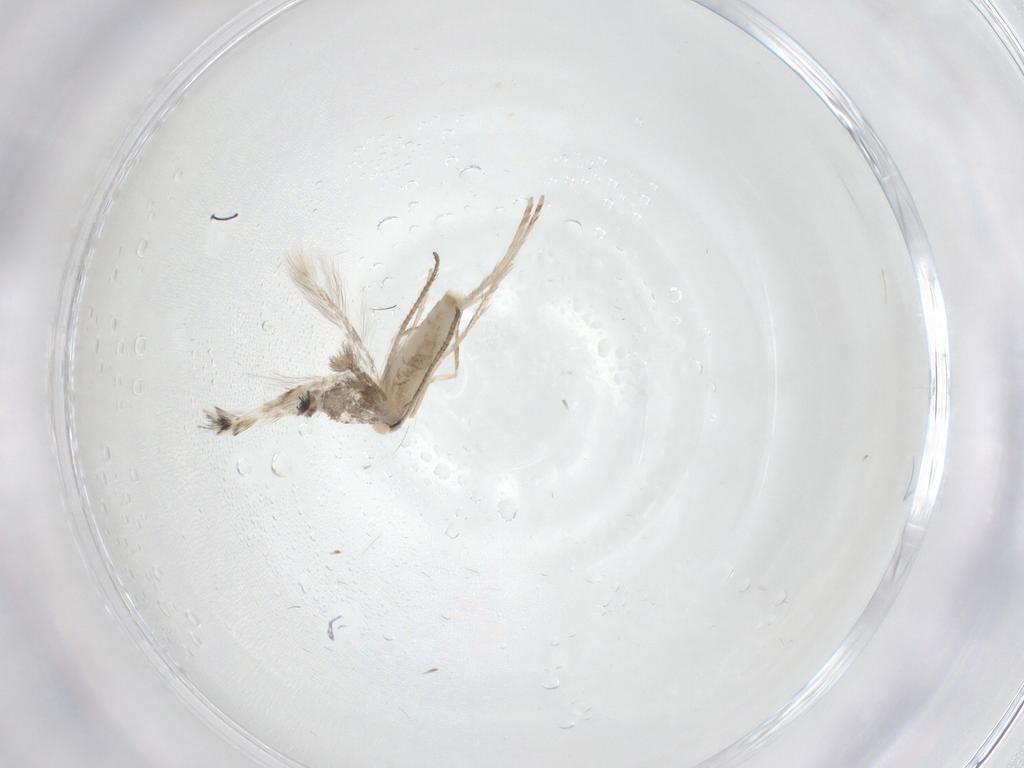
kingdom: Animalia
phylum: Arthropoda
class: Insecta
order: Lepidoptera
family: Gracillariidae
